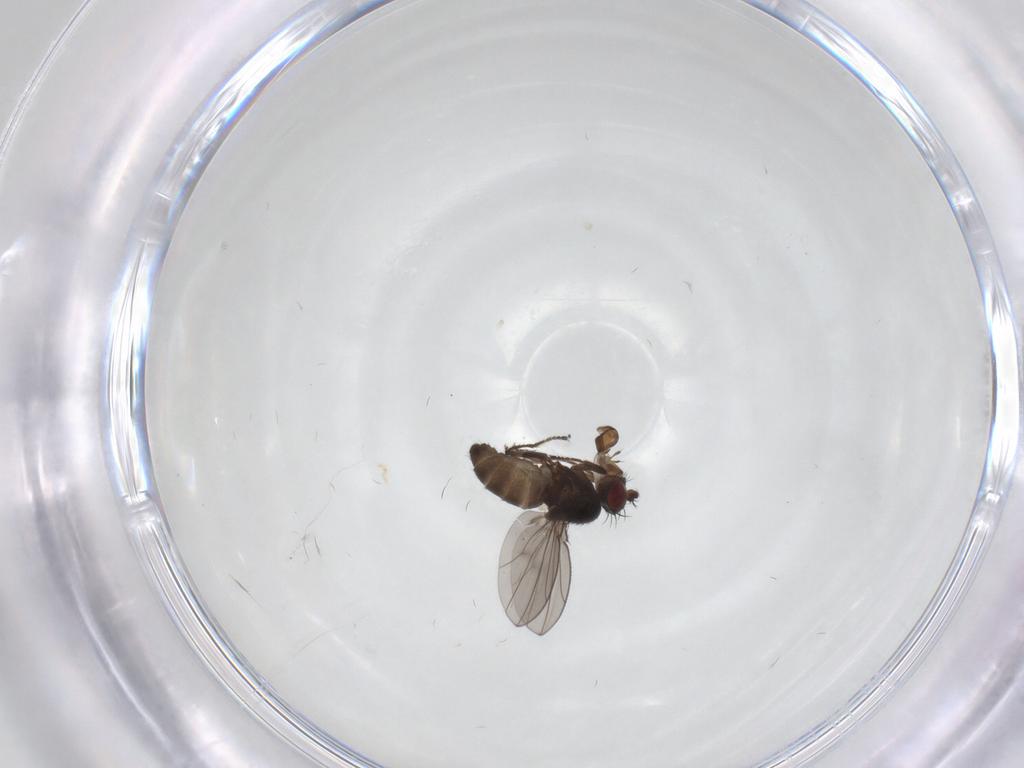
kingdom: Animalia
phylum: Arthropoda
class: Insecta
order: Diptera
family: Ephydridae
